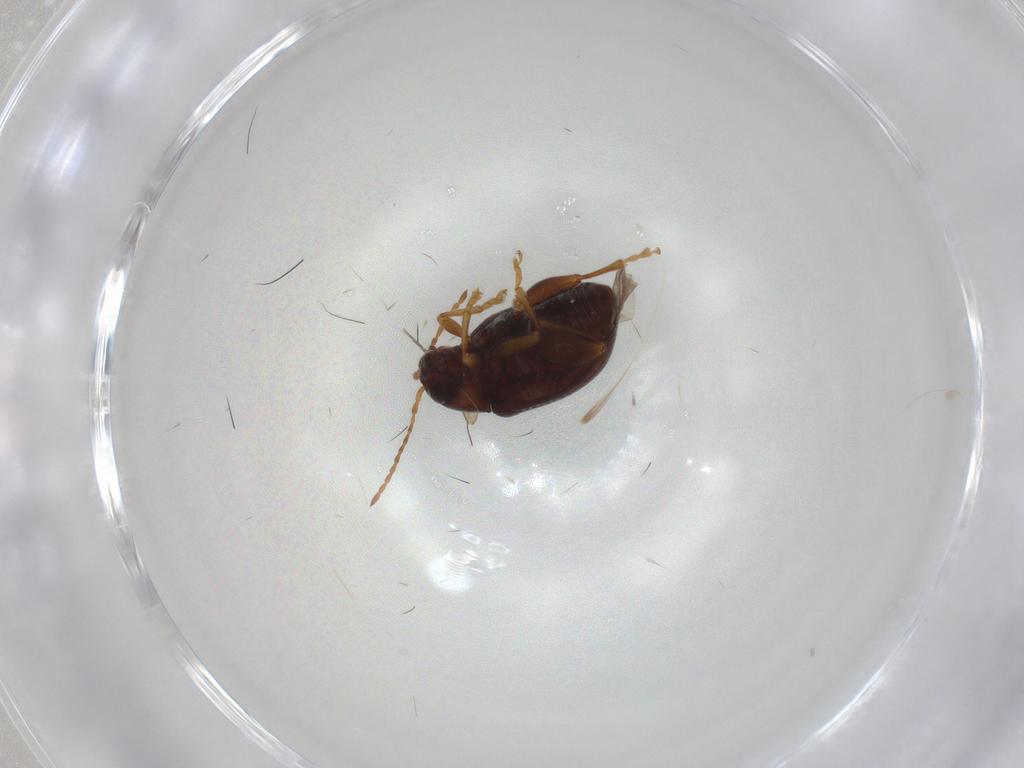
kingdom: Animalia
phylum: Arthropoda
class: Insecta
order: Coleoptera
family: Chrysomelidae
